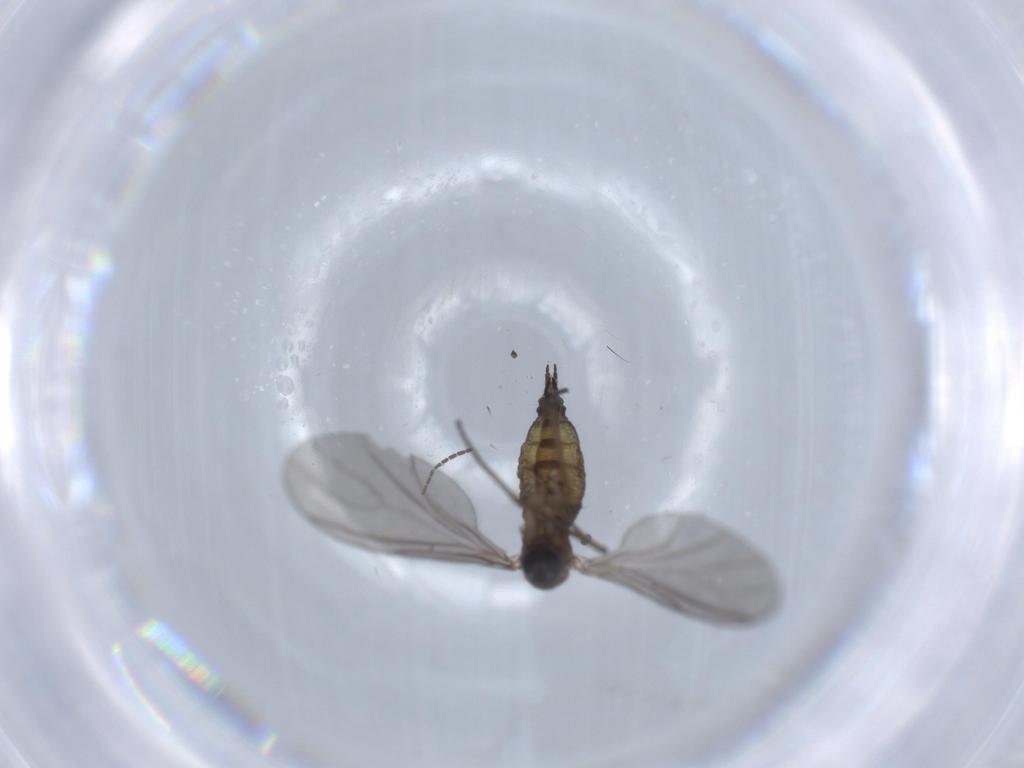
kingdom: Animalia
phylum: Arthropoda
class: Insecta
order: Diptera
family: Sciaridae
